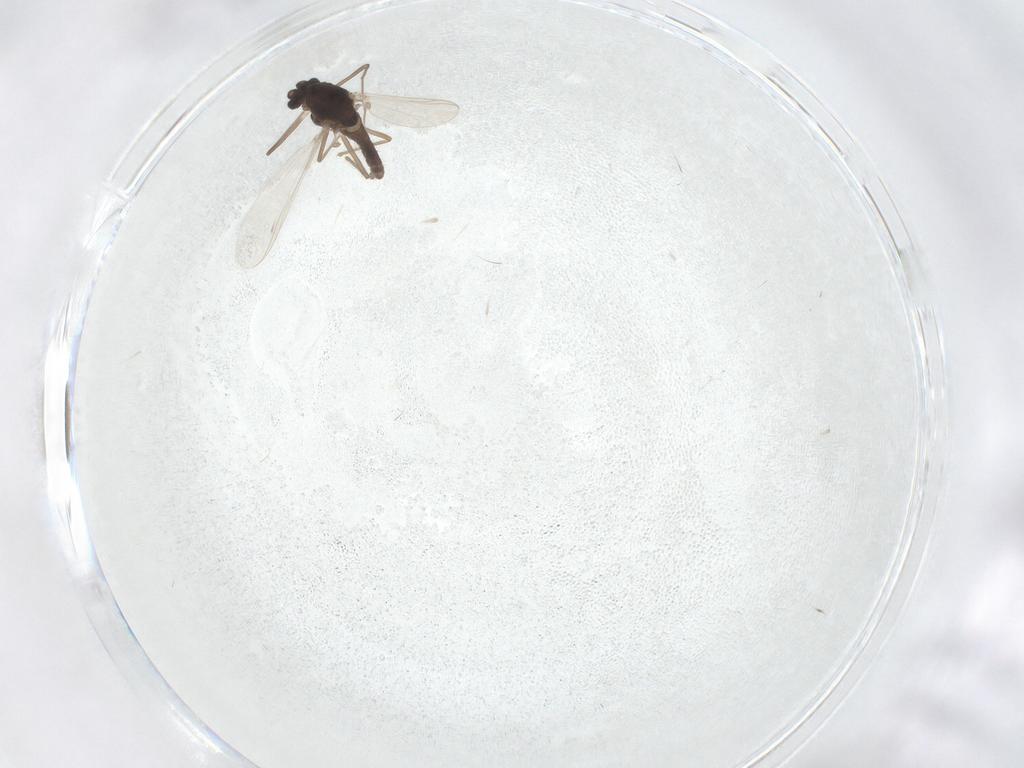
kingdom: Animalia
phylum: Arthropoda
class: Insecta
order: Diptera
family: Chironomidae
